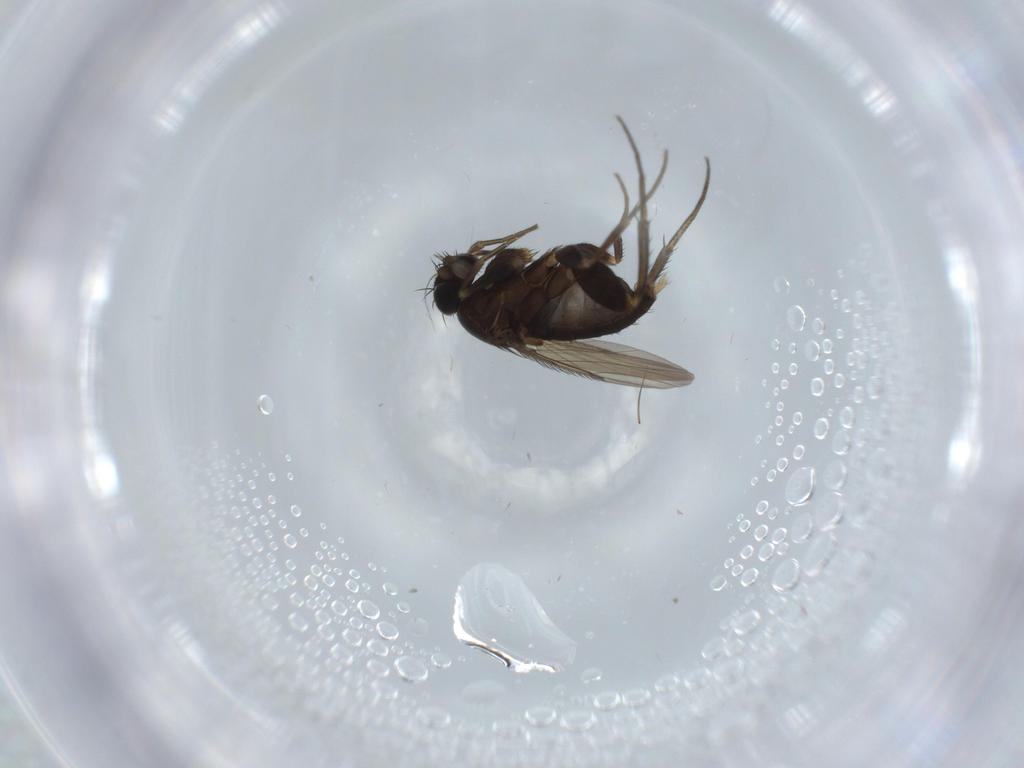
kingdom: Animalia
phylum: Arthropoda
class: Insecta
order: Diptera
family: Phoridae
